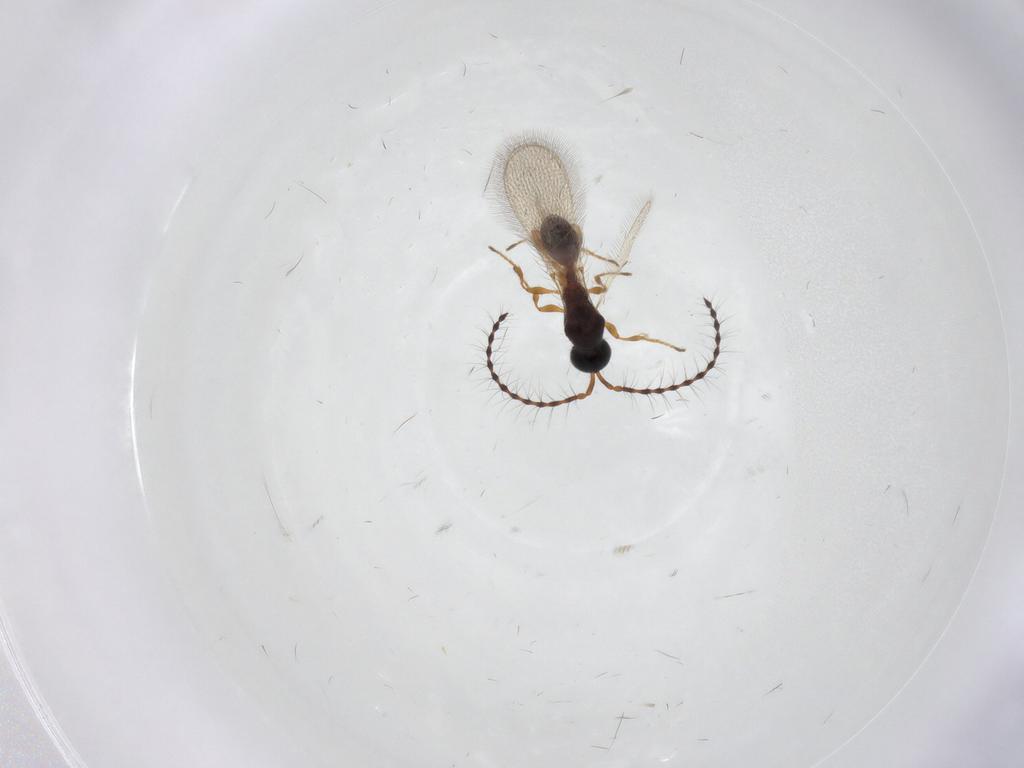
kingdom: Animalia
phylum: Arthropoda
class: Insecta
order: Hymenoptera
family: Diapriidae
